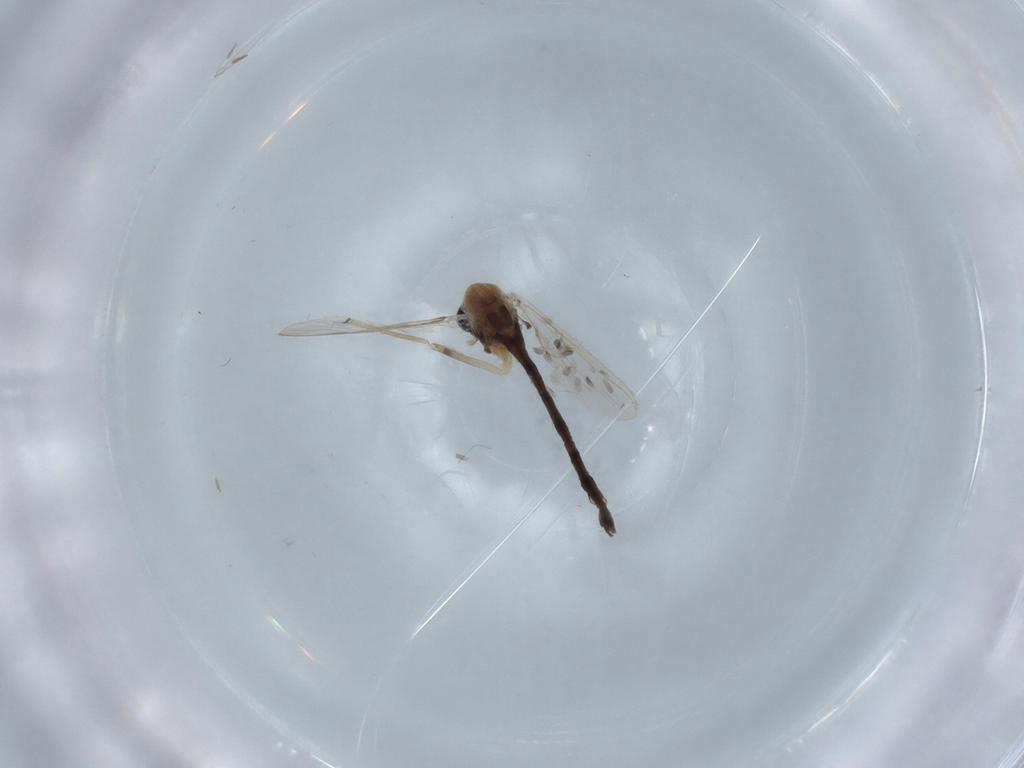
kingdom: Animalia
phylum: Arthropoda
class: Insecta
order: Diptera
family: Chironomidae
